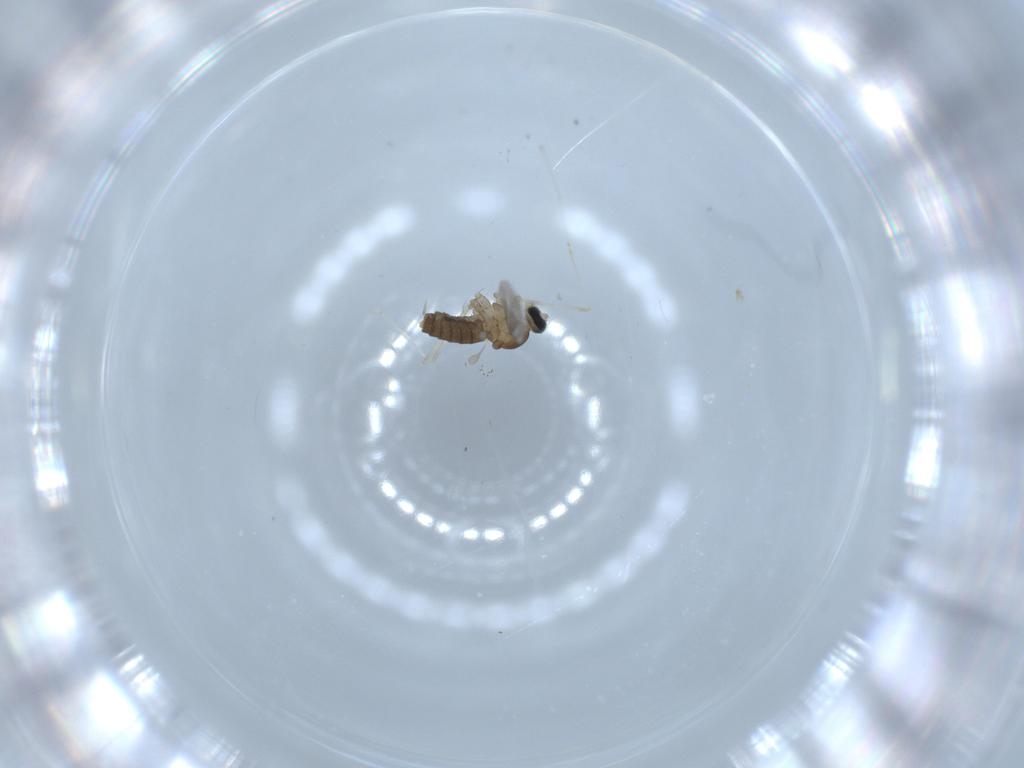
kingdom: Animalia
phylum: Arthropoda
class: Insecta
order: Diptera
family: Cecidomyiidae
